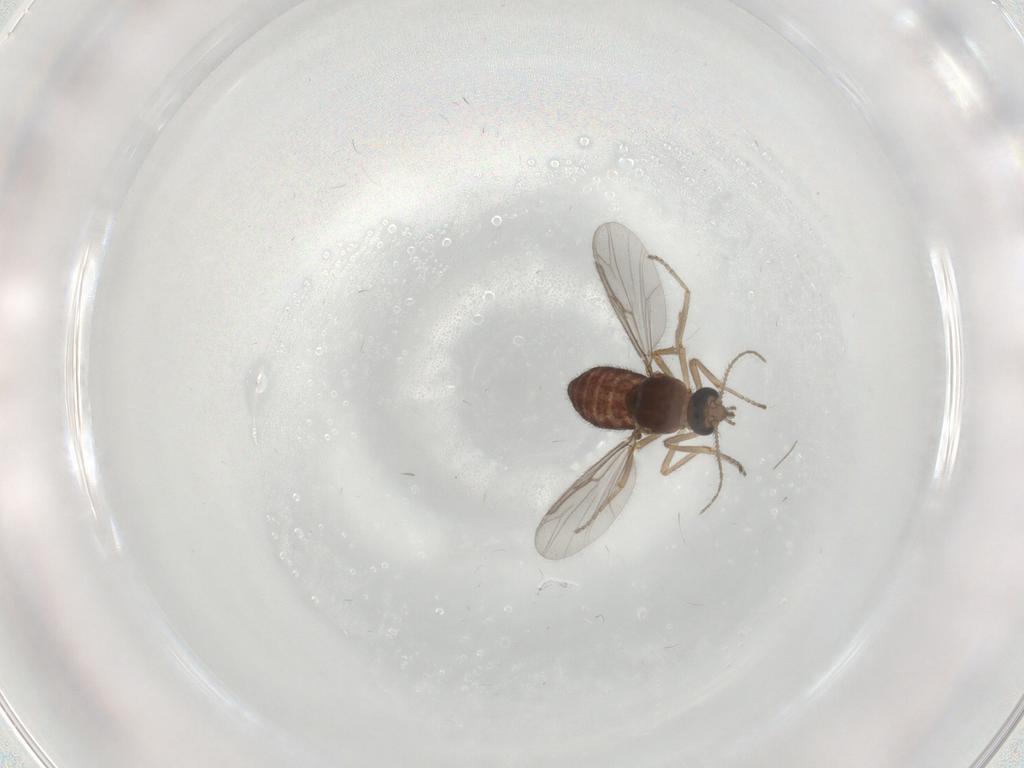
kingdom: Animalia
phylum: Arthropoda
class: Insecta
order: Diptera
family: Ceratopogonidae
